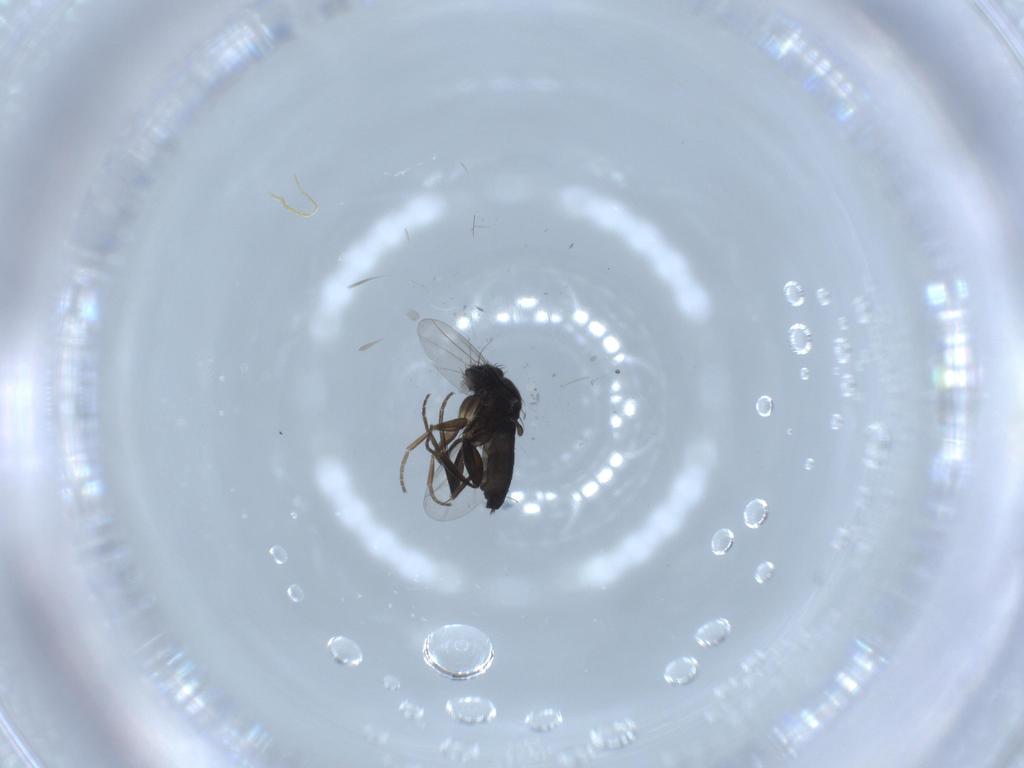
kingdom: Animalia
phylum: Arthropoda
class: Insecta
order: Diptera
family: Phoridae
